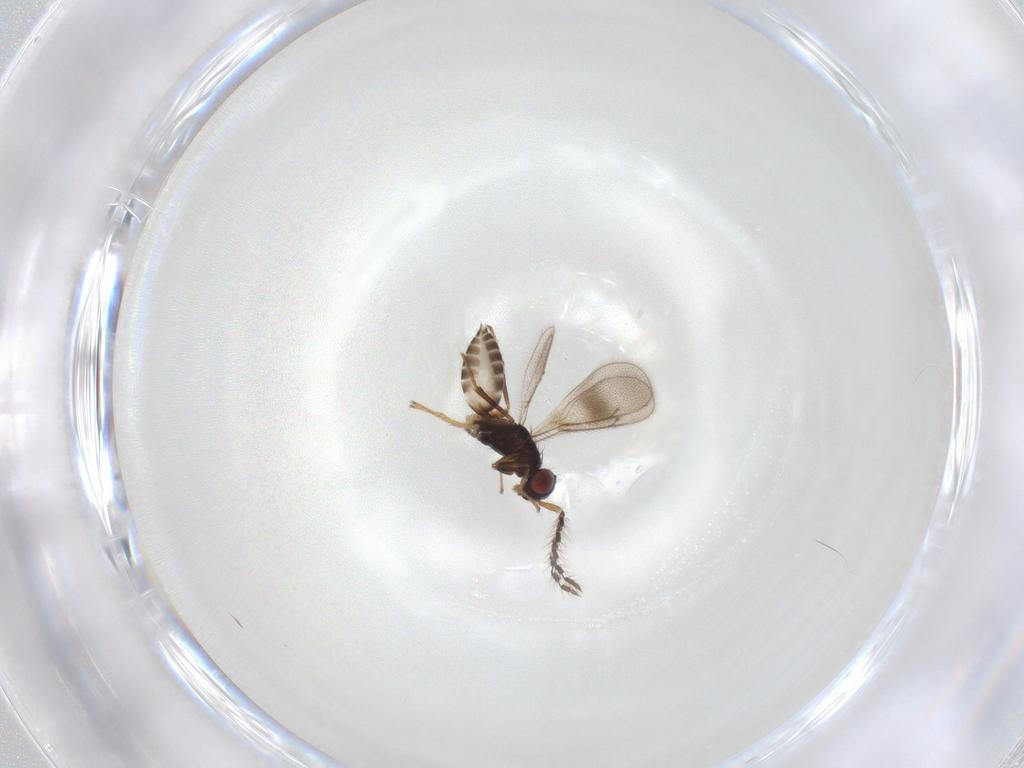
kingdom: Animalia
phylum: Arthropoda
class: Insecta
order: Hymenoptera
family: Formicidae
